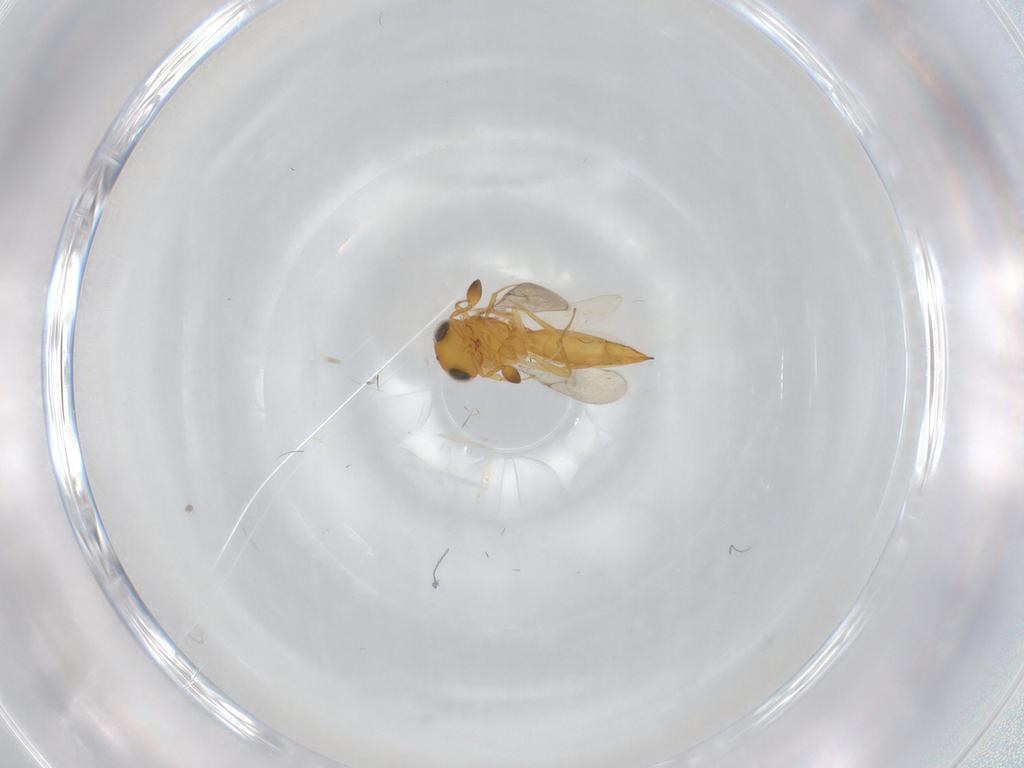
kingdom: Animalia
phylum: Arthropoda
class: Insecta
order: Hymenoptera
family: Scelionidae
